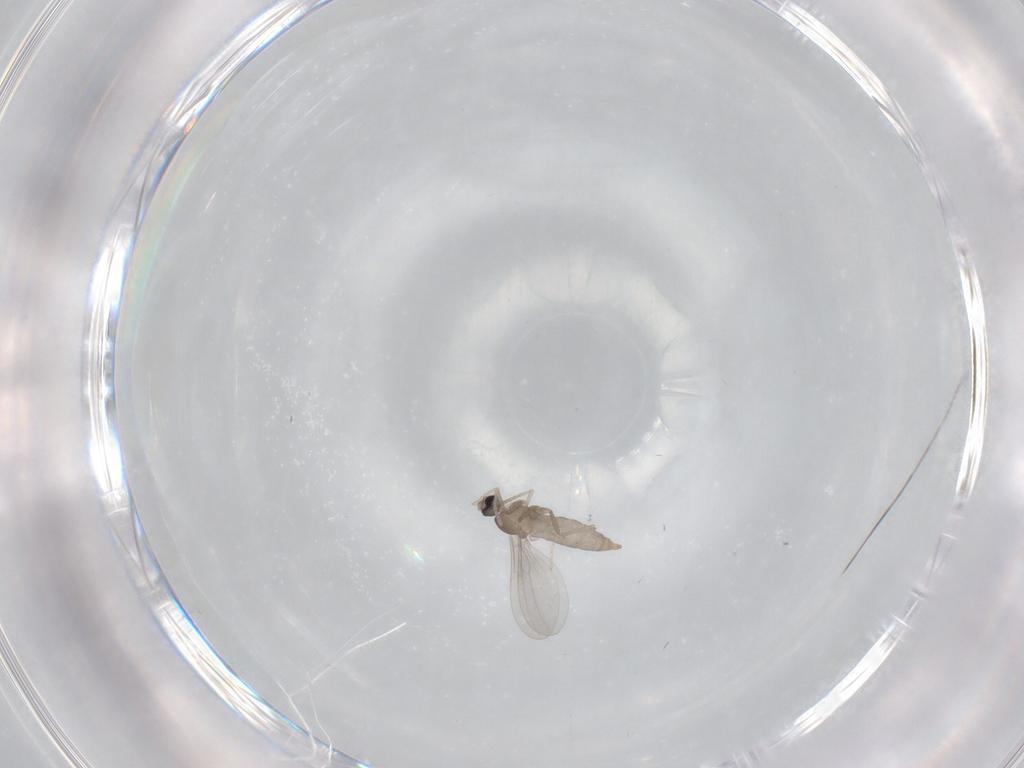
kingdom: Animalia
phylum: Arthropoda
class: Insecta
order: Diptera
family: Cecidomyiidae
